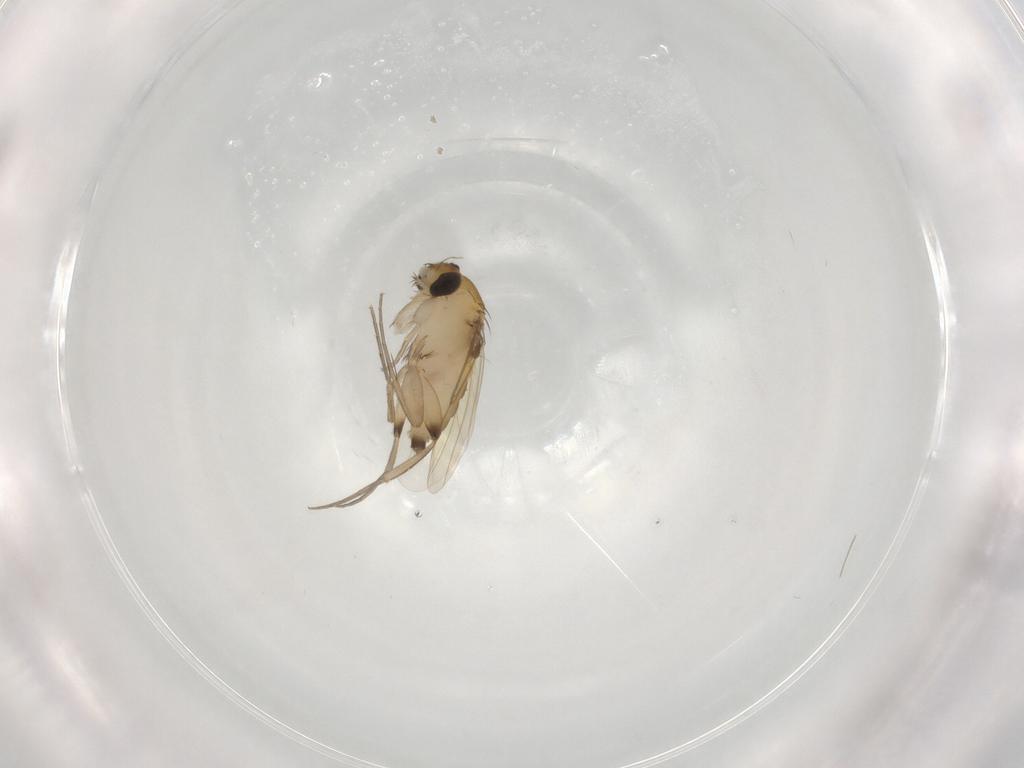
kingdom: Animalia
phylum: Arthropoda
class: Insecta
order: Diptera
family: Phoridae
